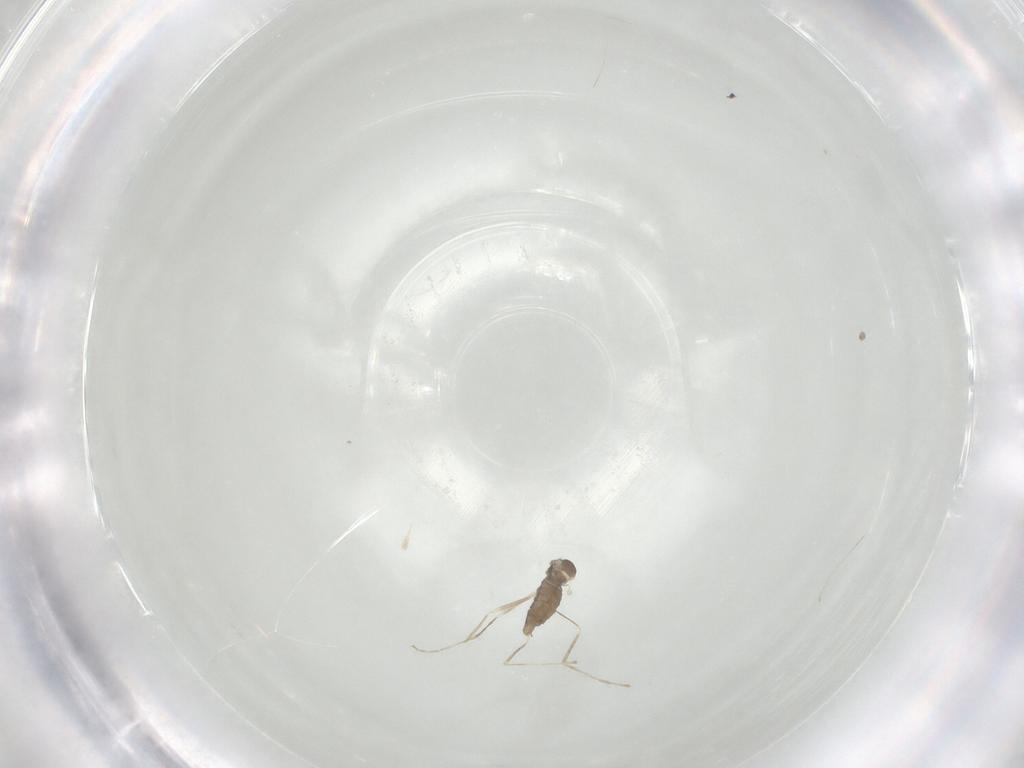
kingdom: Animalia
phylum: Arthropoda
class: Insecta
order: Diptera
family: Cecidomyiidae
